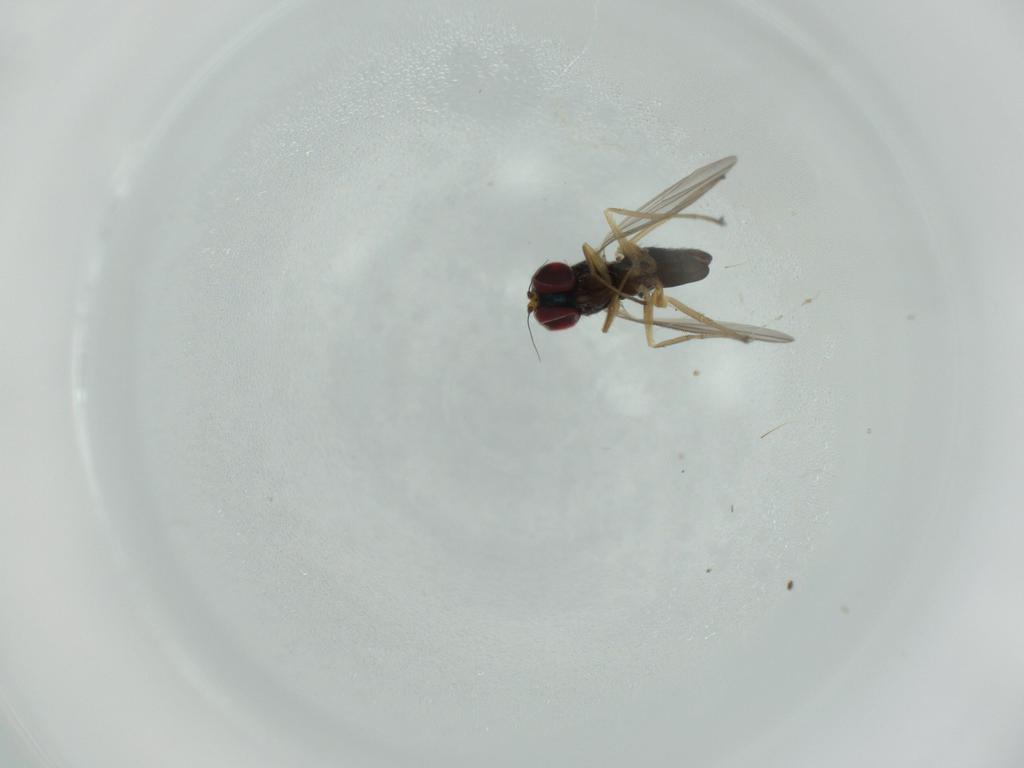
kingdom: Animalia
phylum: Arthropoda
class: Insecta
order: Diptera
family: Dolichopodidae
